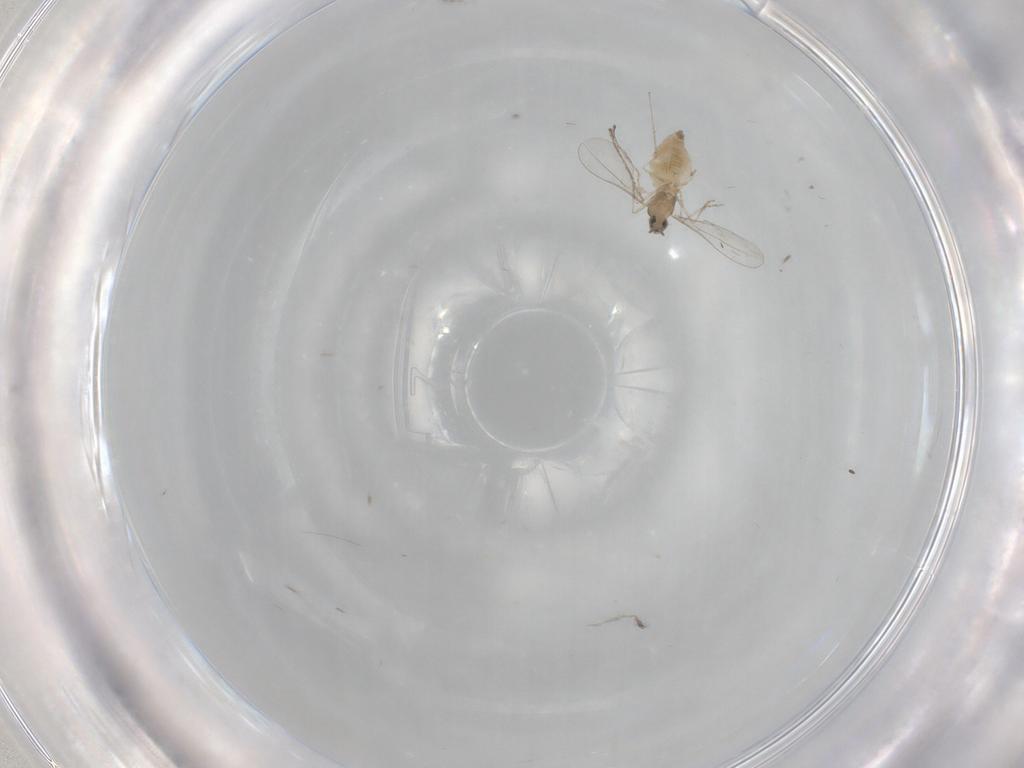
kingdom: Animalia
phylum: Arthropoda
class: Insecta
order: Diptera
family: Cecidomyiidae
